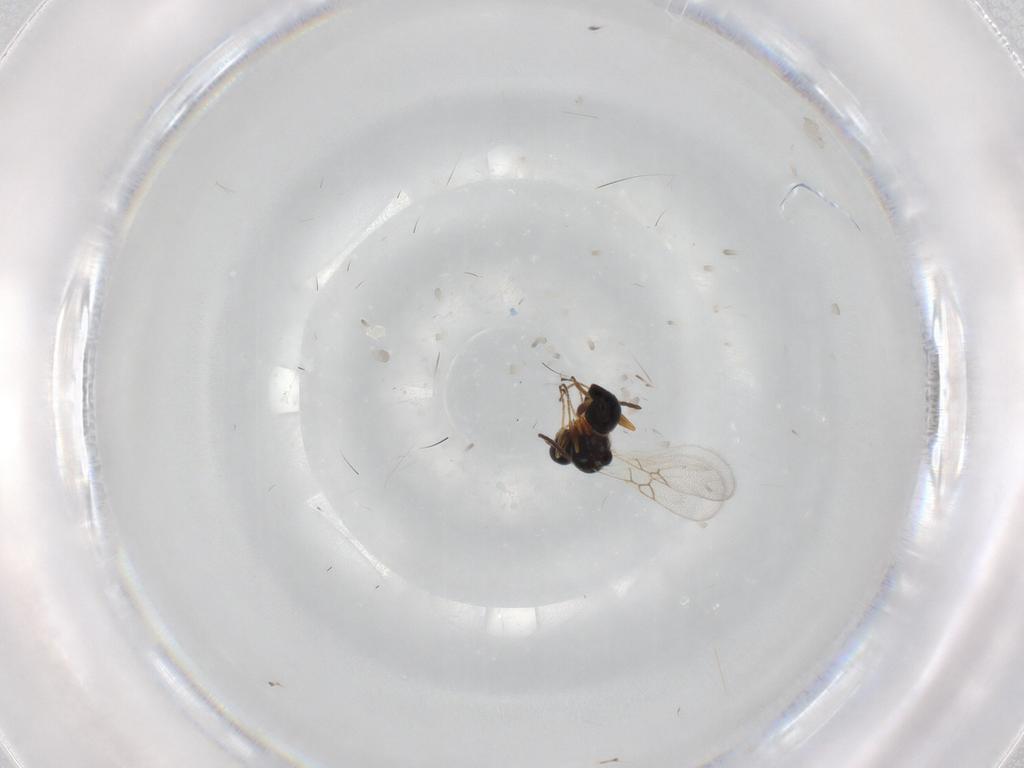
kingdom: Animalia
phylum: Arthropoda
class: Insecta
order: Hymenoptera
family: Figitidae
